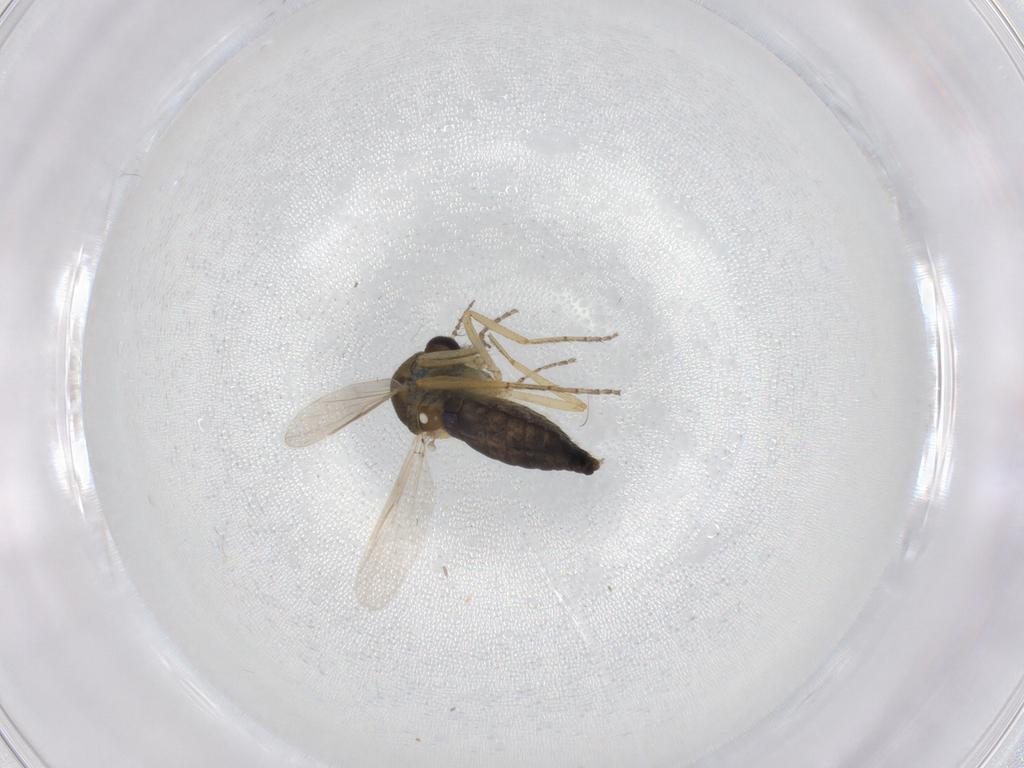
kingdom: Animalia
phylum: Arthropoda
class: Insecta
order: Diptera
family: Ceratopogonidae
